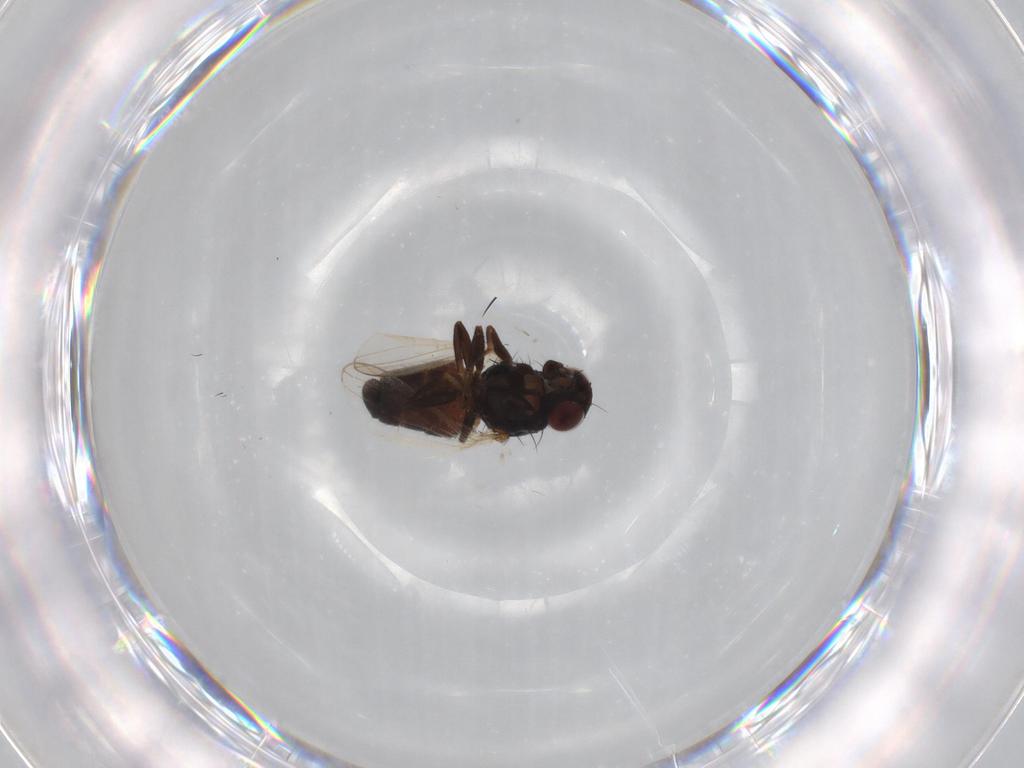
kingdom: Animalia
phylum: Arthropoda
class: Insecta
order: Diptera
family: Carnidae
